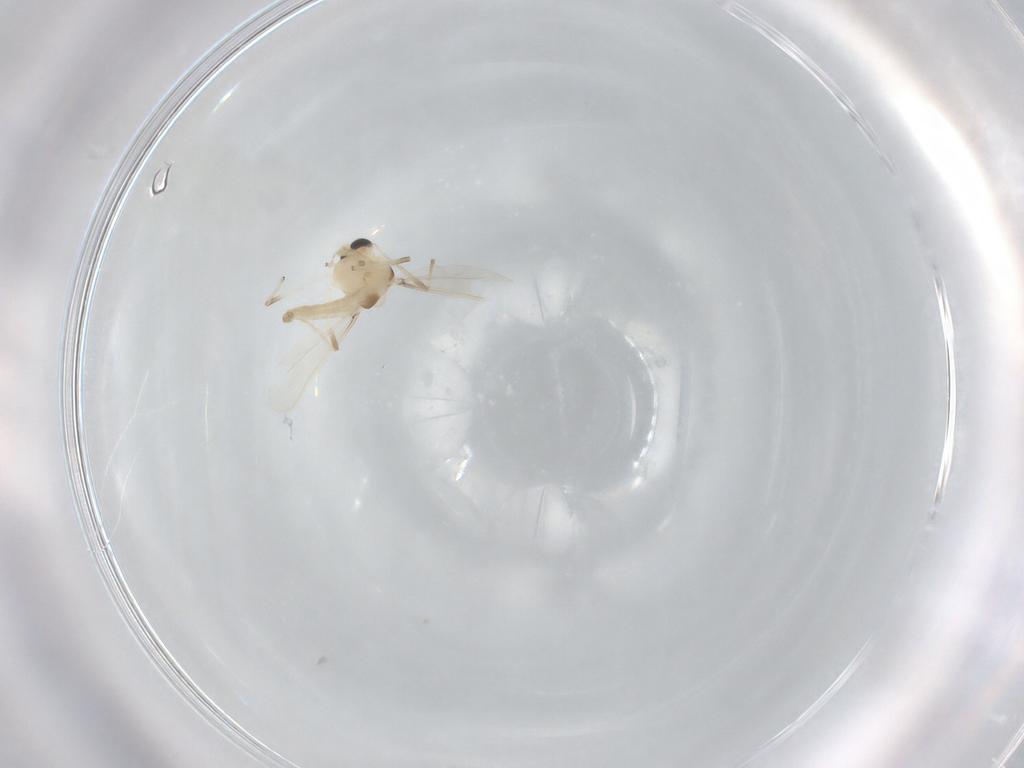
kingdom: Animalia
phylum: Arthropoda
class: Insecta
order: Diptera
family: Chironomidae
